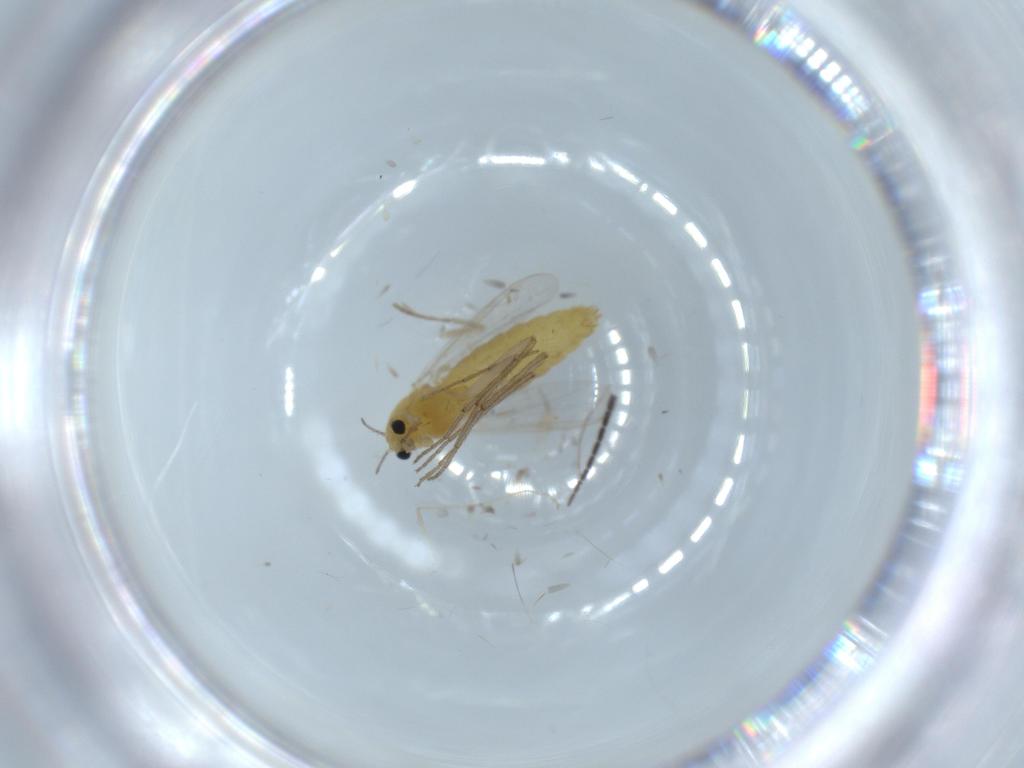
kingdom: Animalia
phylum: Arthropoda
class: Insecta
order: Diptera
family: Chironomidae
